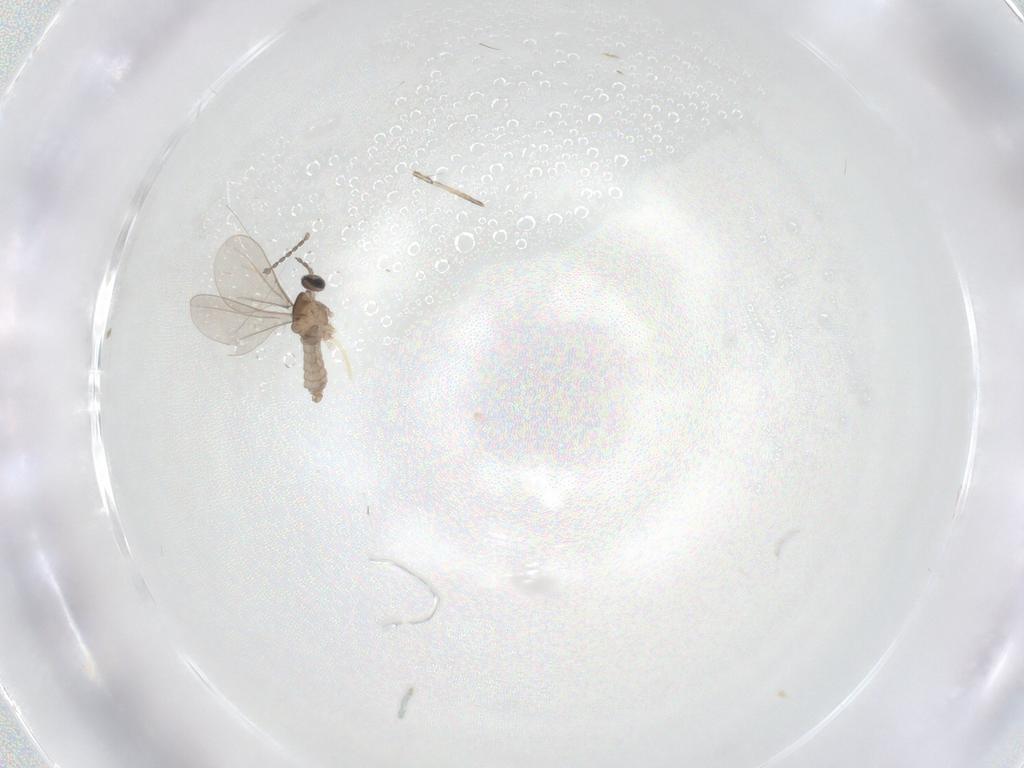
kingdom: Animalia
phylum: Arthropoda
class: Insecta
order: Diptera
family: Cecidomyiidae
